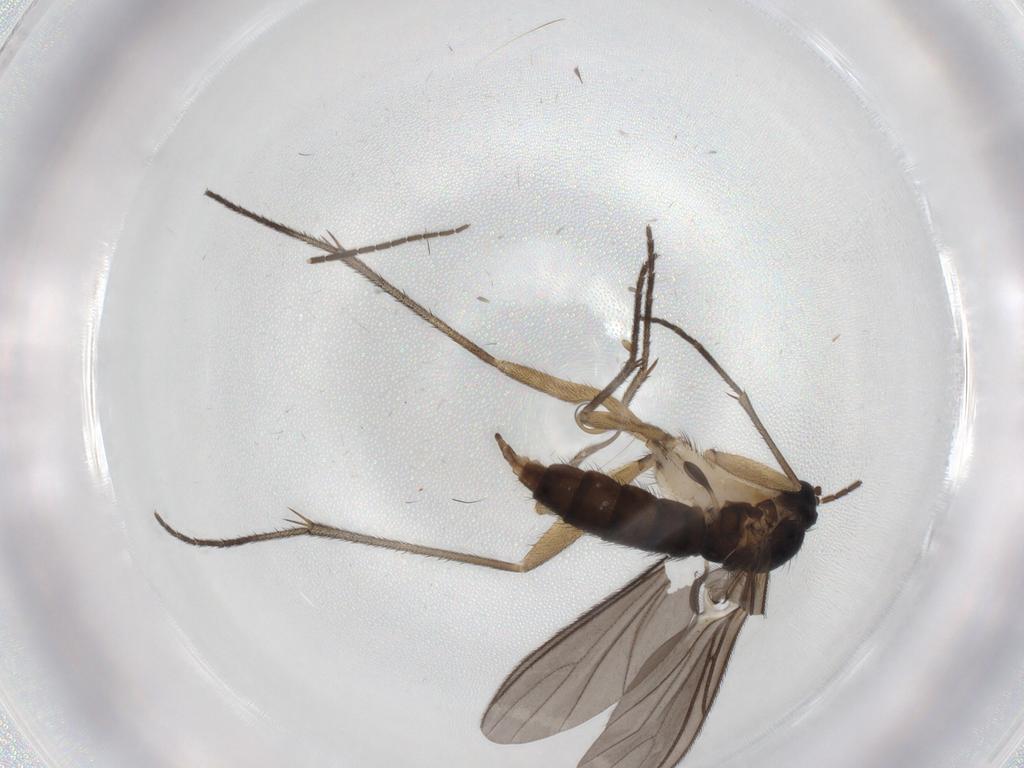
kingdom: Animalia
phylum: Arthropoda
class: Insecta
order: Diptera
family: Sciaridae
